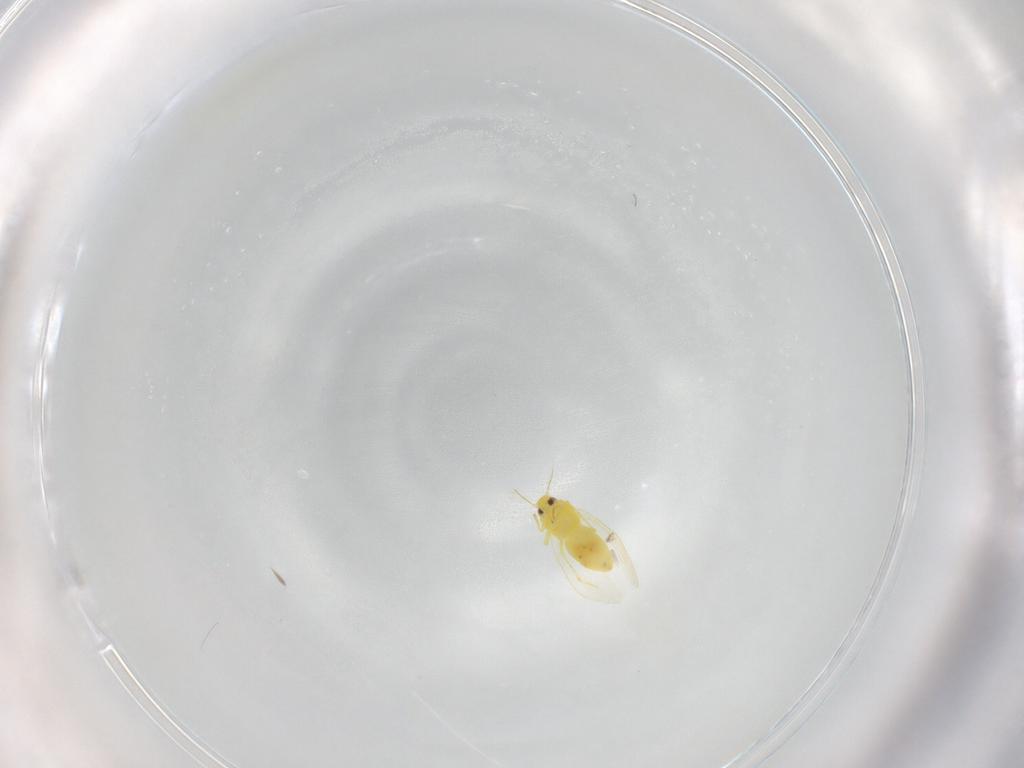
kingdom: Animalia
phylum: Arthropoda
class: Insecta
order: Hemiptera
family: Aleyrodidae
